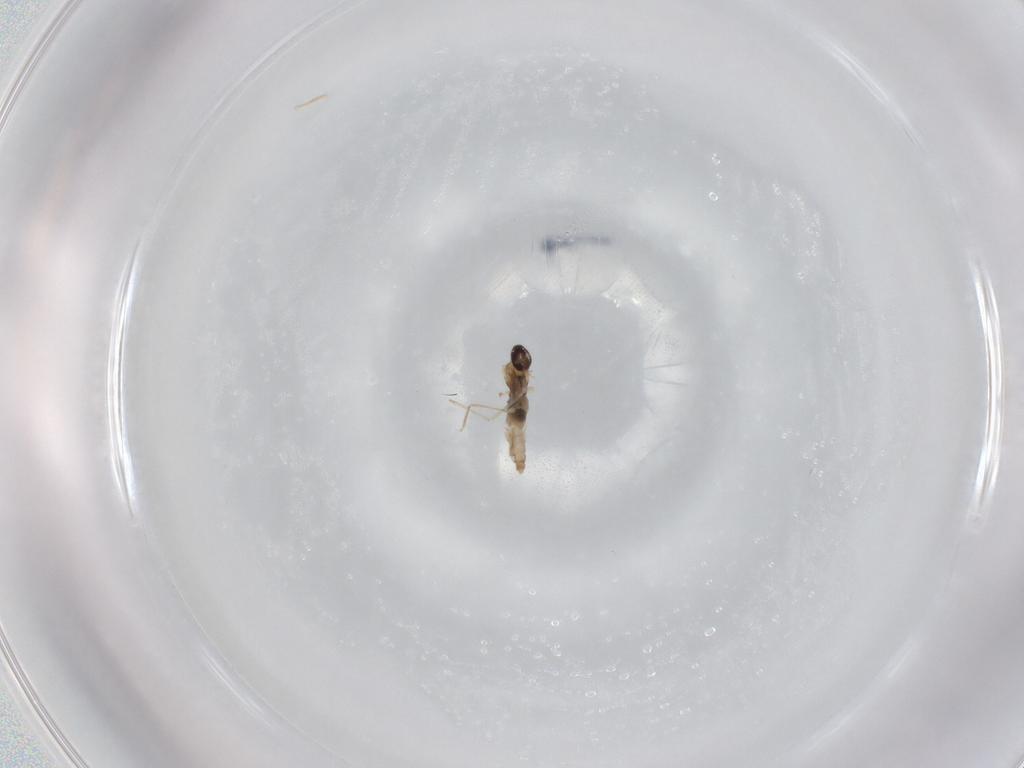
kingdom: Animalia
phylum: Arthropoda
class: Insecta
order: Diptera
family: Cecidomyiidae
